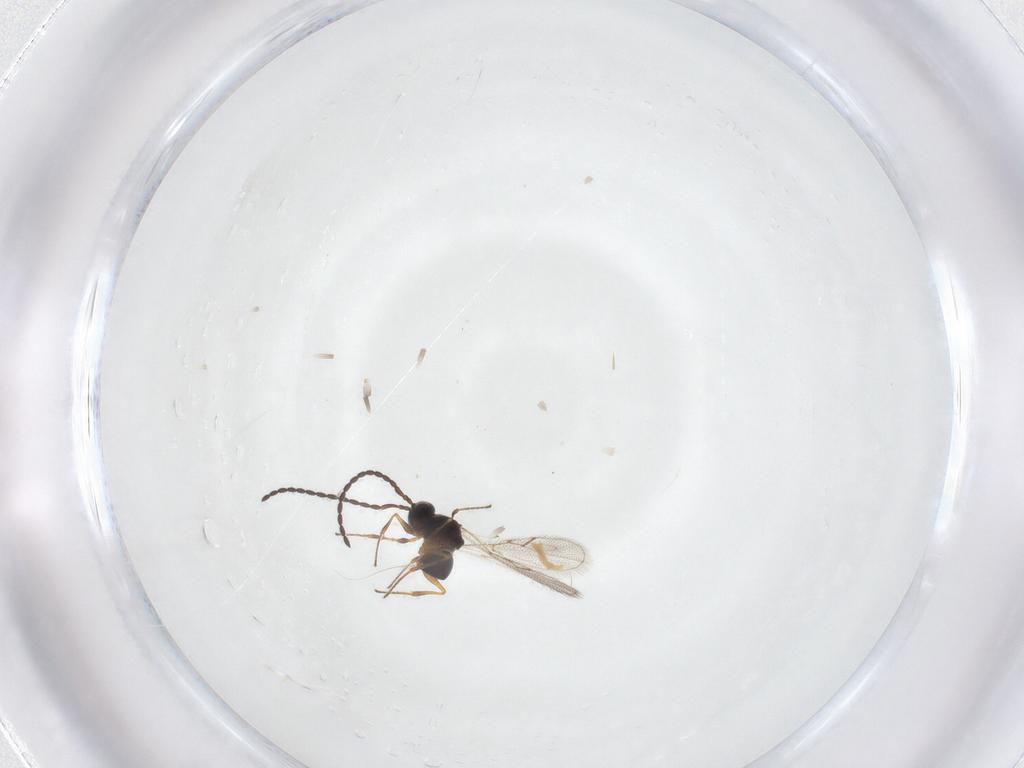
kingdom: Animalia
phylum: Arthropoda
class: Insecta
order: Hymenoptera
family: Figitidae
